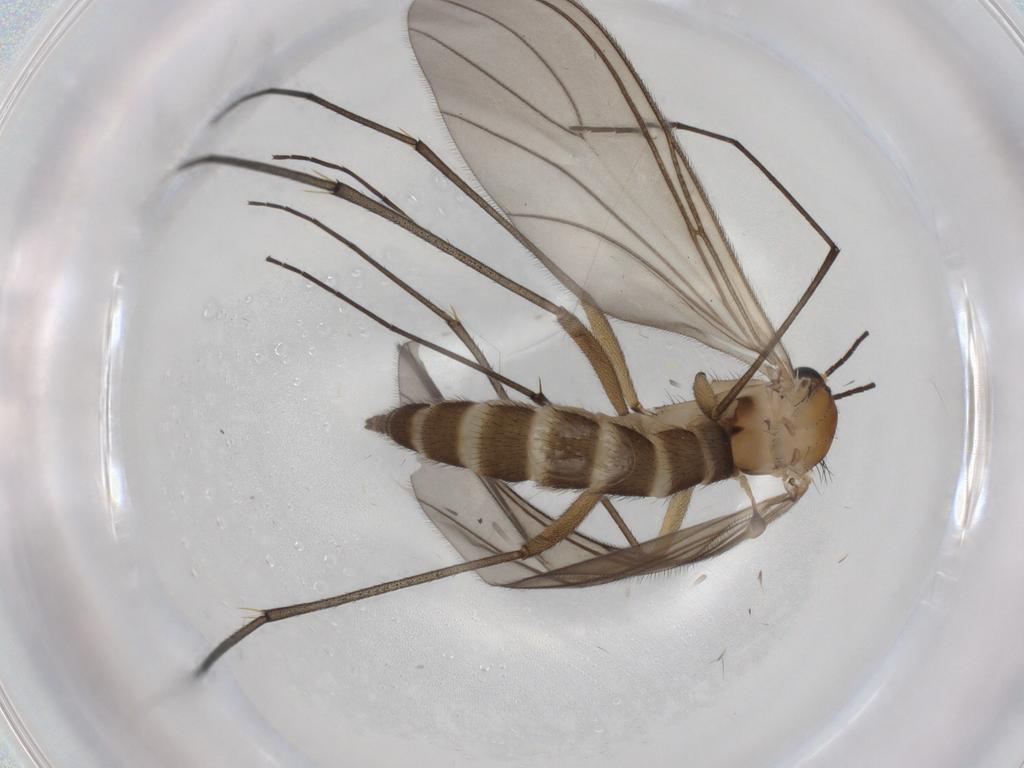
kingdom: Animalia
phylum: Arthropoda
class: Insecta
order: Diptera
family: Sciaridae
